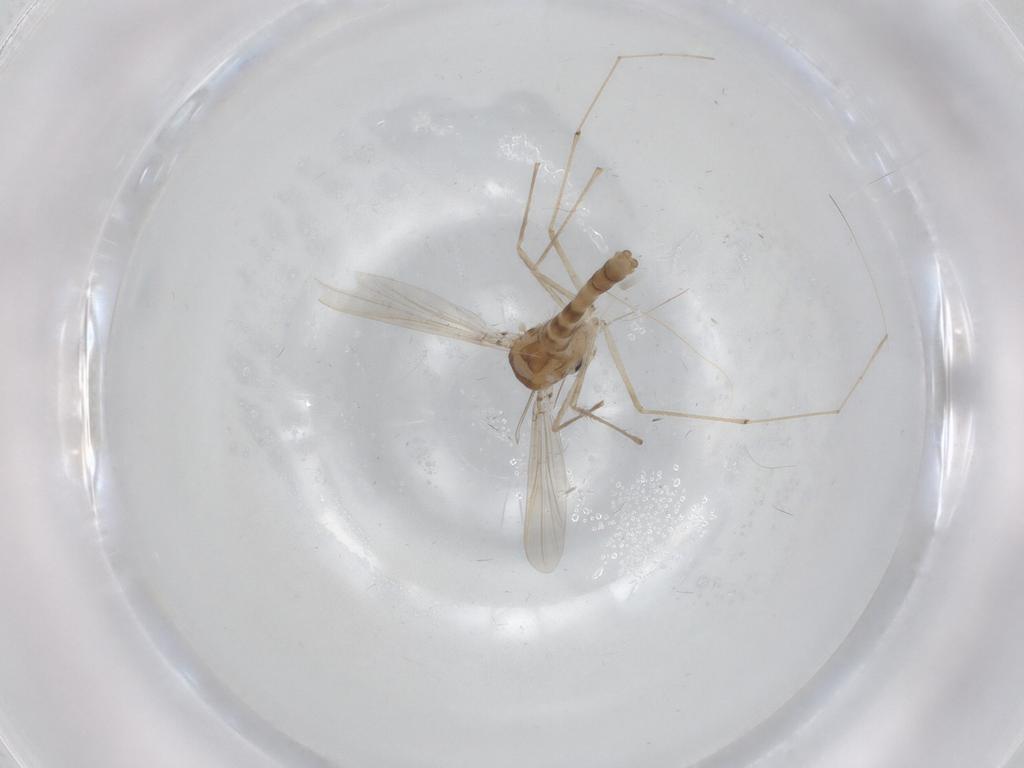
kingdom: Animalia
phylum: Arthropoda
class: Insecta
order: Diptera
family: Chironomidae
